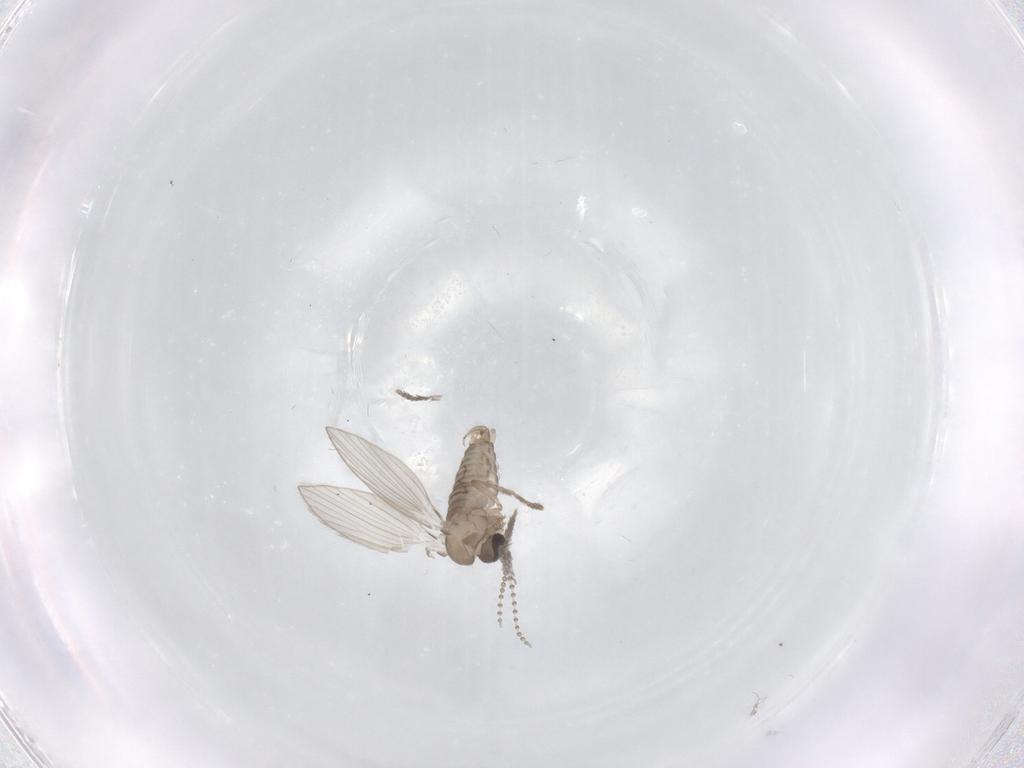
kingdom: Animalia
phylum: Arthropoda
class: Insecta
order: Diptera
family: Psychodidae
